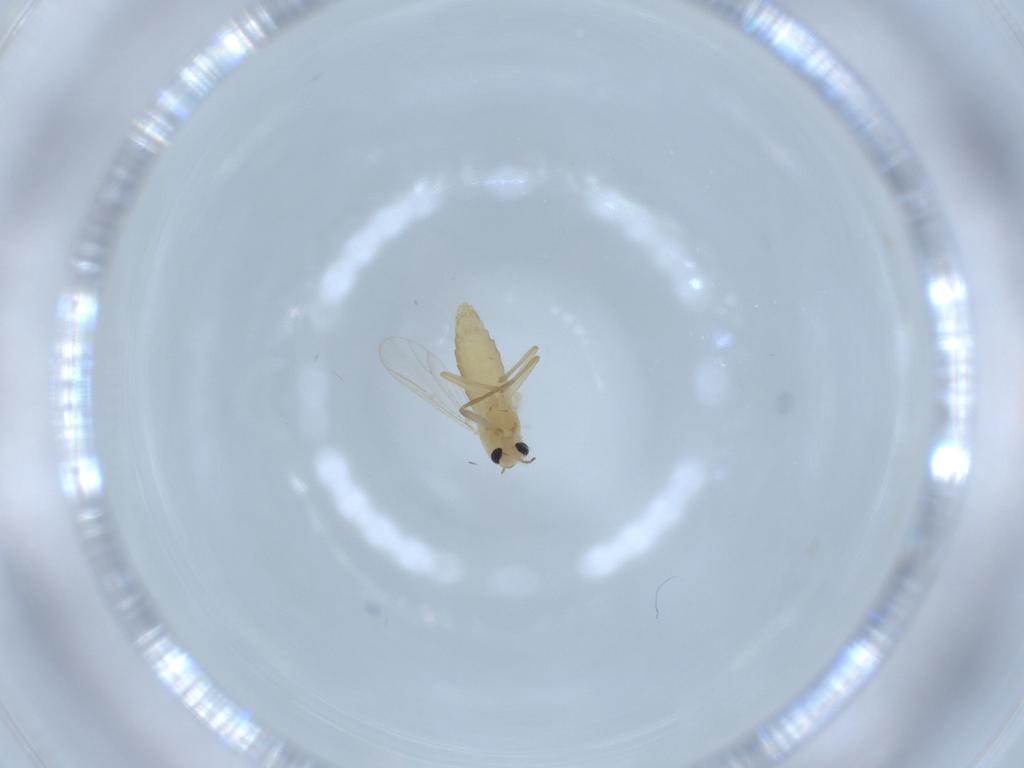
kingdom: Animalia
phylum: Arthropoda
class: Insecta
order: Diptera
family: Chironomidae
